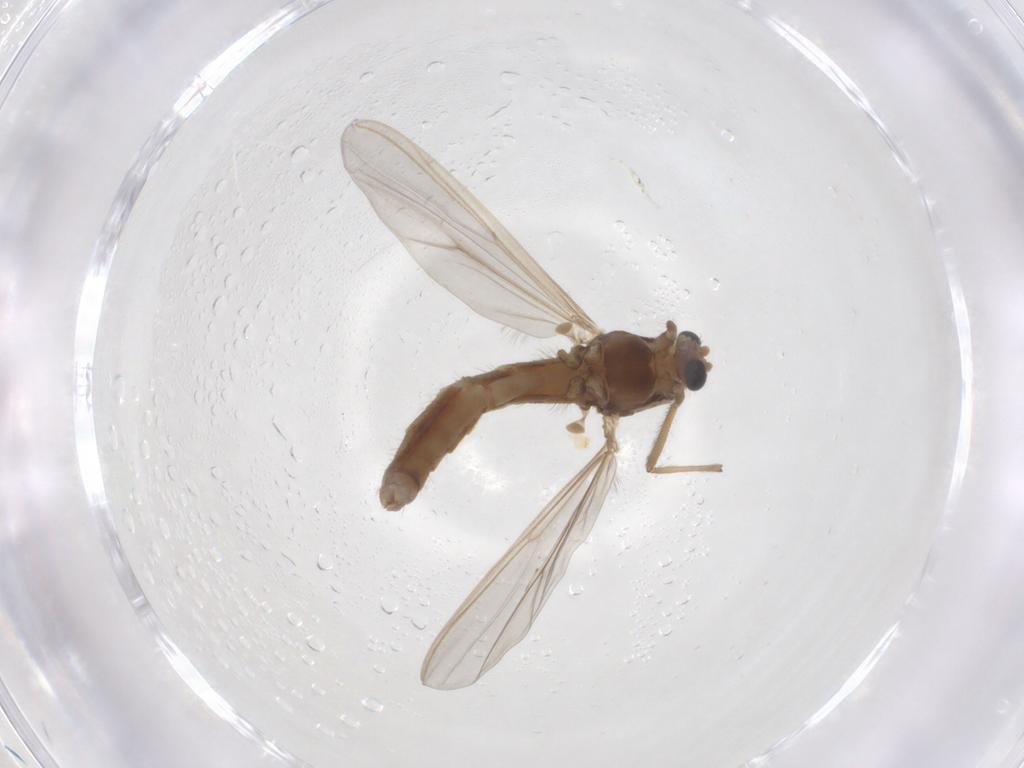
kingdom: Animalia
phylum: Arthropoda
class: Insecta
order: Diptera
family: Chironomidae
